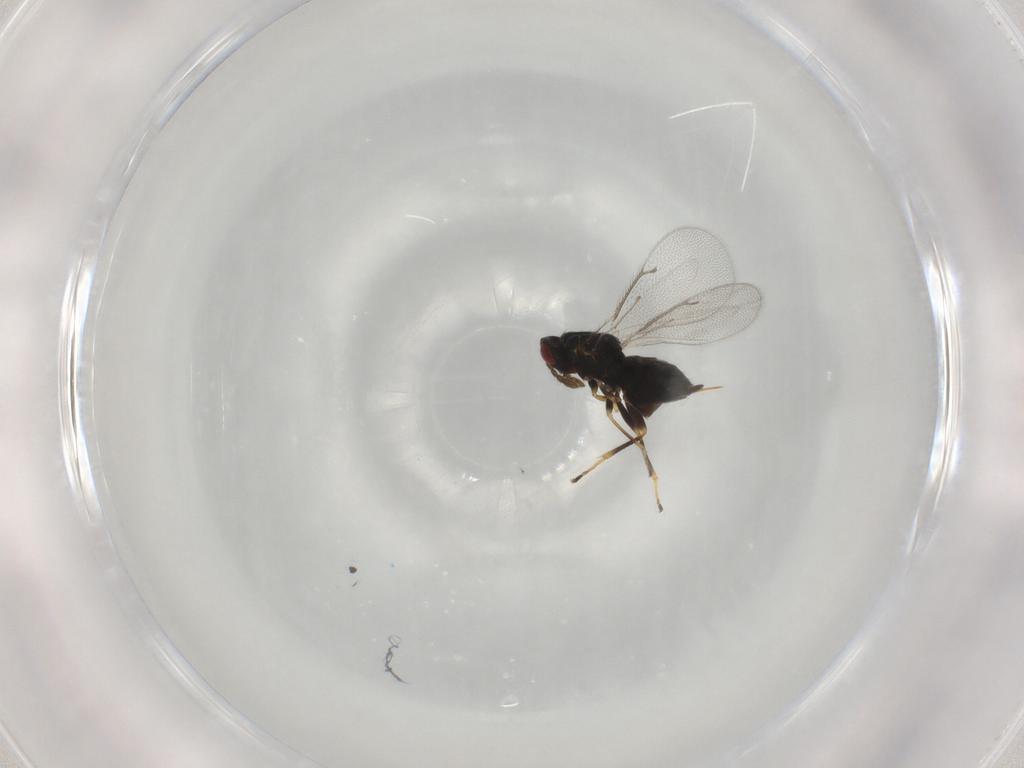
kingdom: Animalia
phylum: Arthropoda
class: Insecta
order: Hymenoptera
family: Eulophidae
